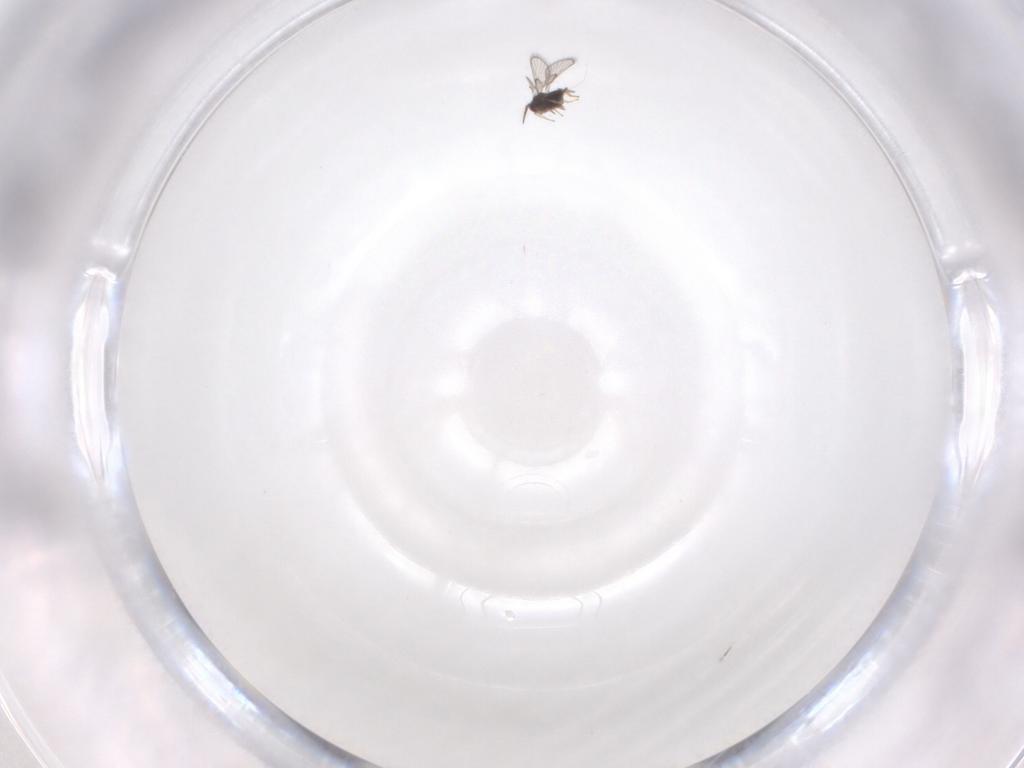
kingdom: Animalia
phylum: Arthropoda
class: Insecta
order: Hymenoptera
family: Trichogrammatidae
